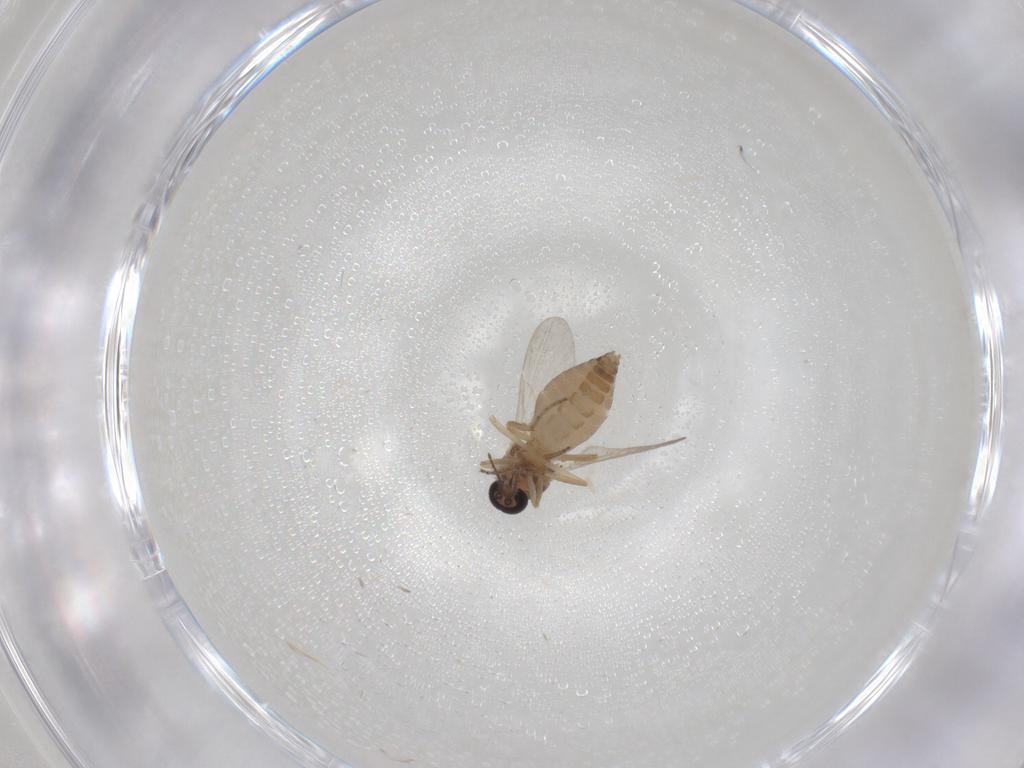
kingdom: Animalia
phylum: Arthropoda
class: Insecta
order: Diptera
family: Ceratopogonidae
